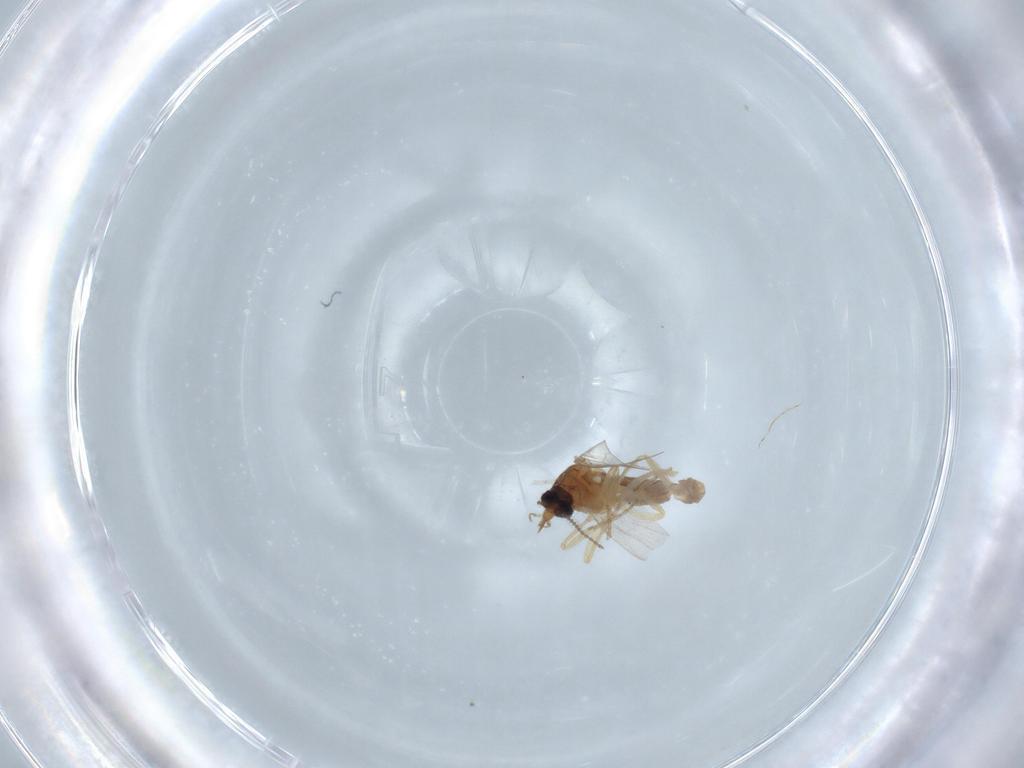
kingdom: Animalia
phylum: Arthropoda
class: Insecta
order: Diptera
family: Ceratopogonidae
